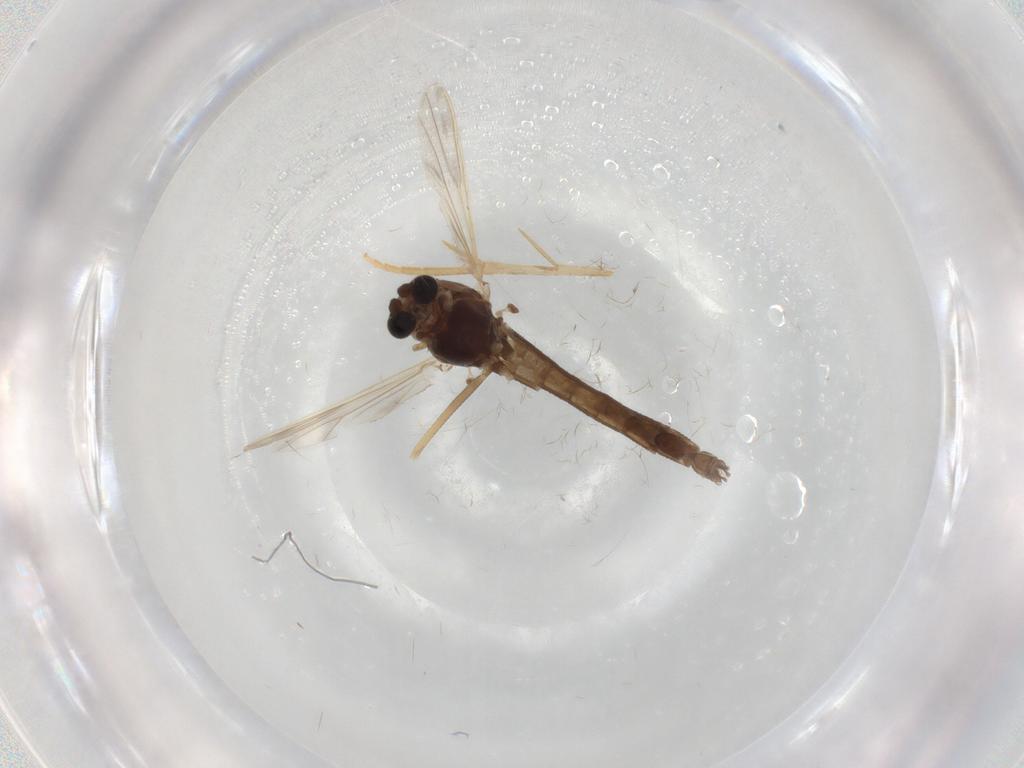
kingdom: Animalia
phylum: Arthropoda
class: Insecta
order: Diptera
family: Chironomidae
